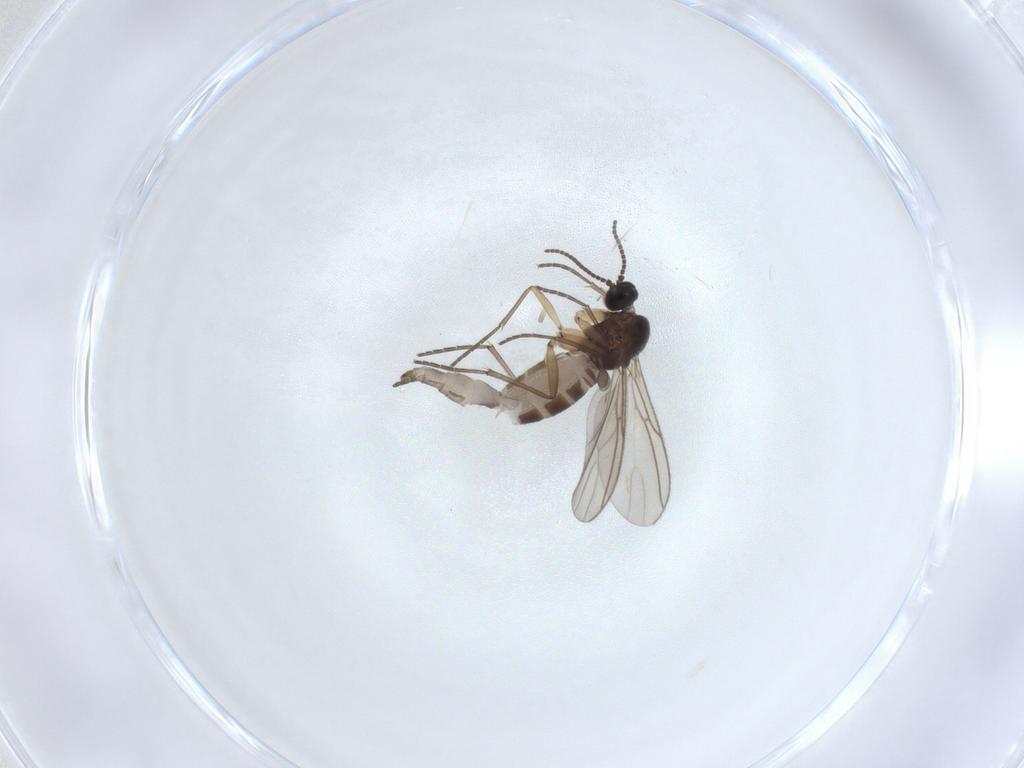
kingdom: Animalia
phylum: Arthropoda
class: Insecta
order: Diptera
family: Sciaridae
